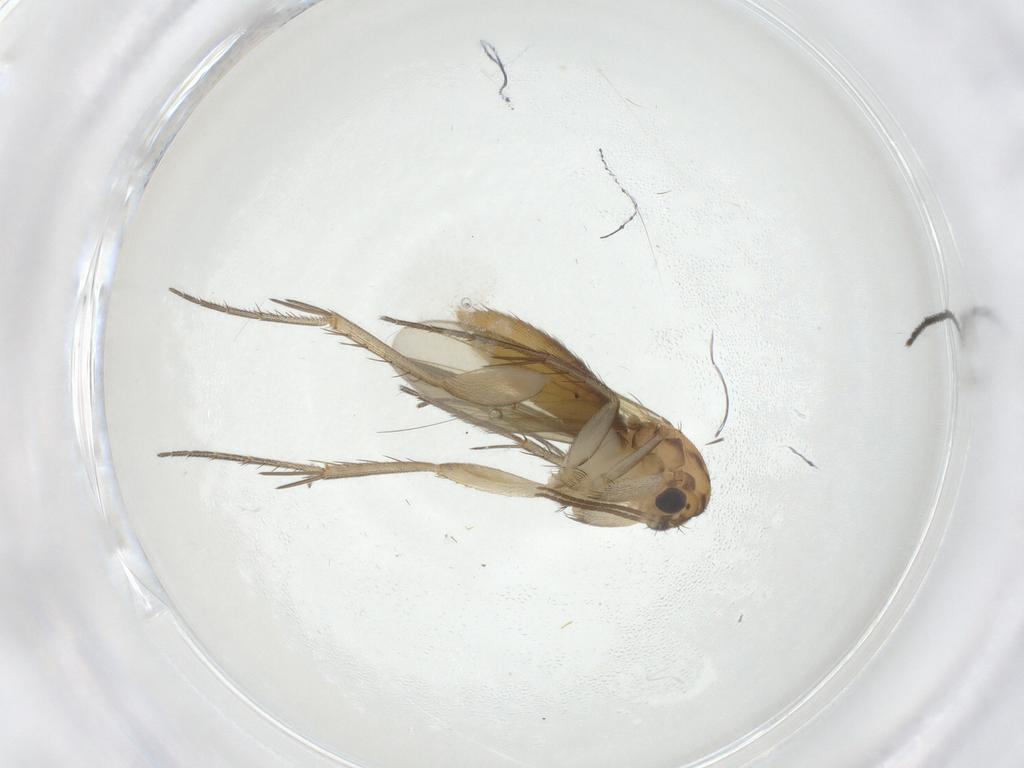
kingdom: Animalia
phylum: Arthropoda
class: Insecta
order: Diptera
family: Mycetophilidae
